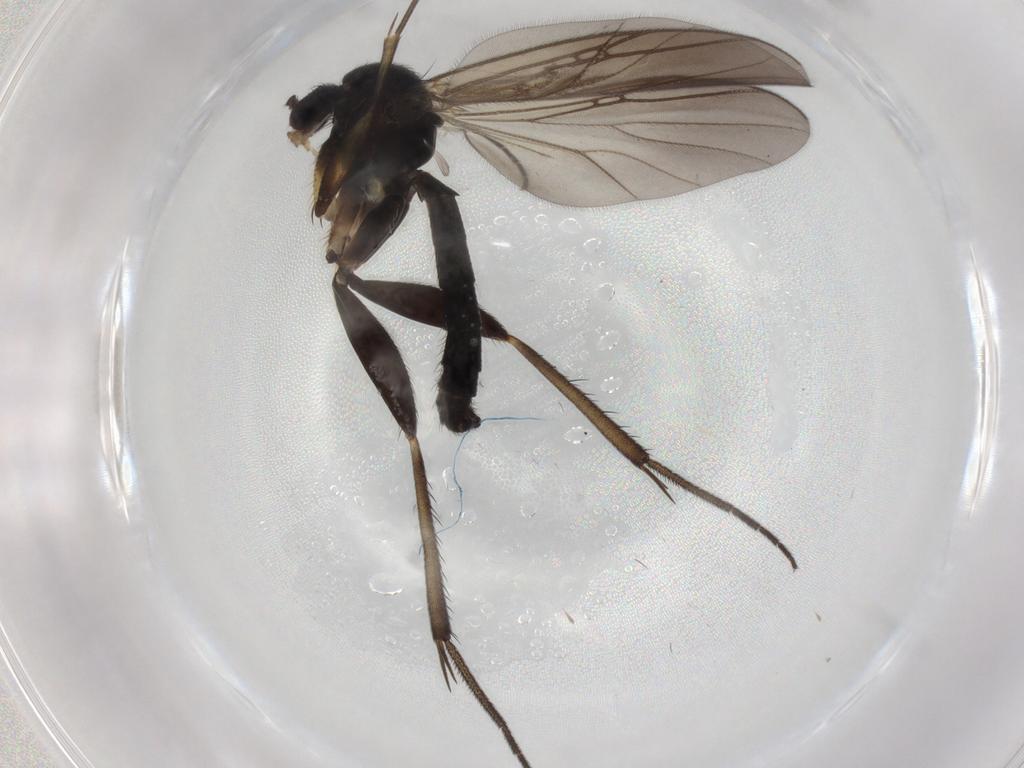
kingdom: Animalia
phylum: Arthropoda
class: Insecta
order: Diptera
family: Mycetophilidae
